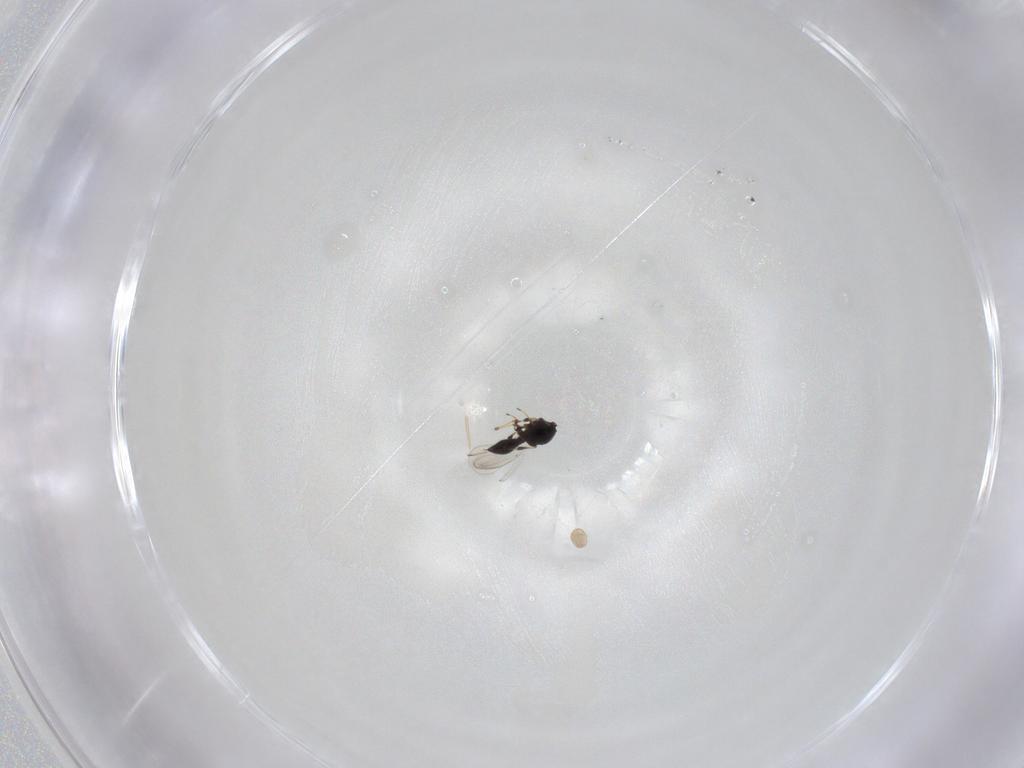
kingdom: Animalia
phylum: Arthropoda
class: Insecta
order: Hymenoptera
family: Platygastridae
